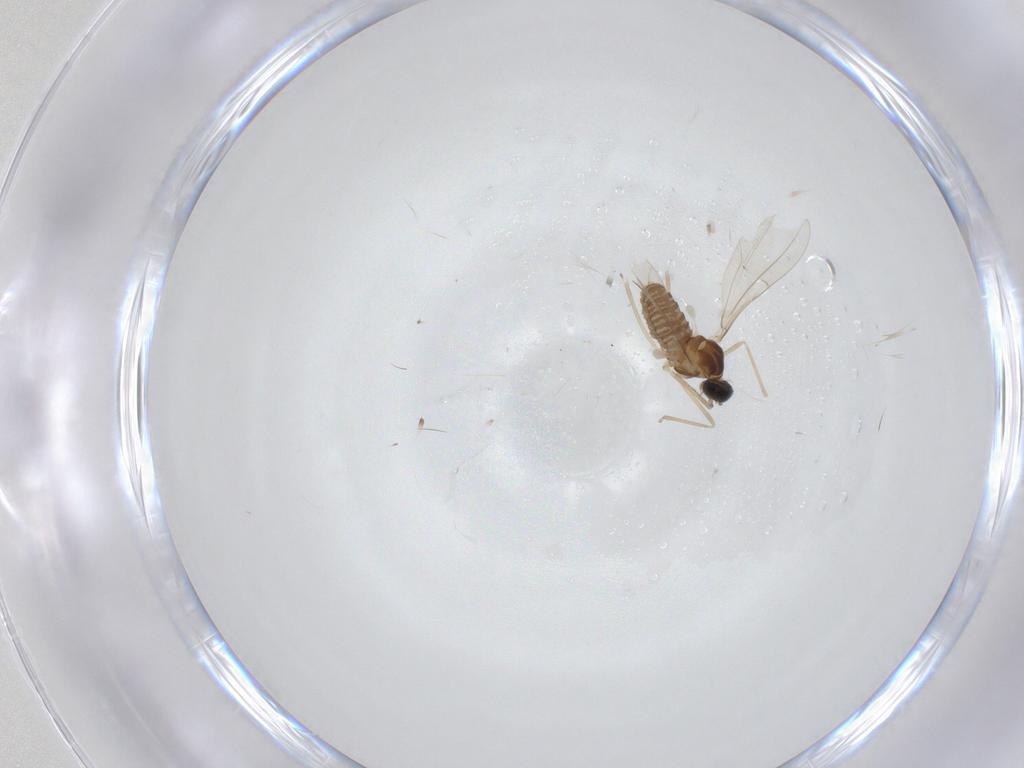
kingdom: Animalia
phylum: Arthropoda
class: Insecta
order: Diptera
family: Cecidomyiidae
